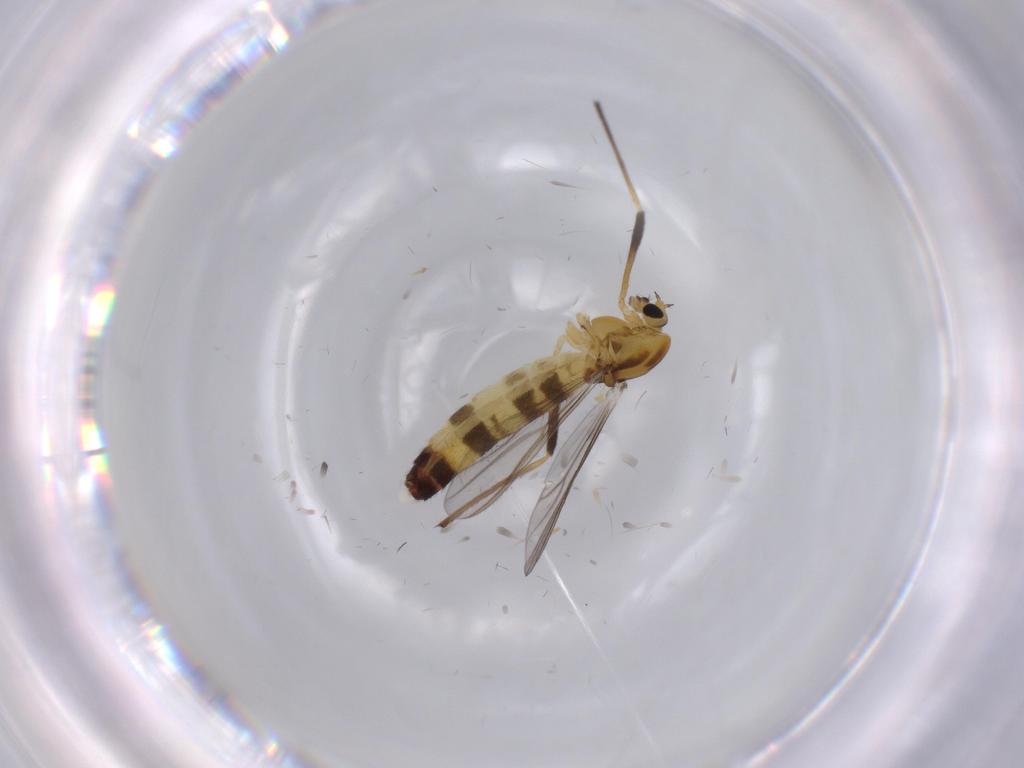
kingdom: Animalia
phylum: Arthropoda
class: Insecta
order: Diptera
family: Chironomidae
